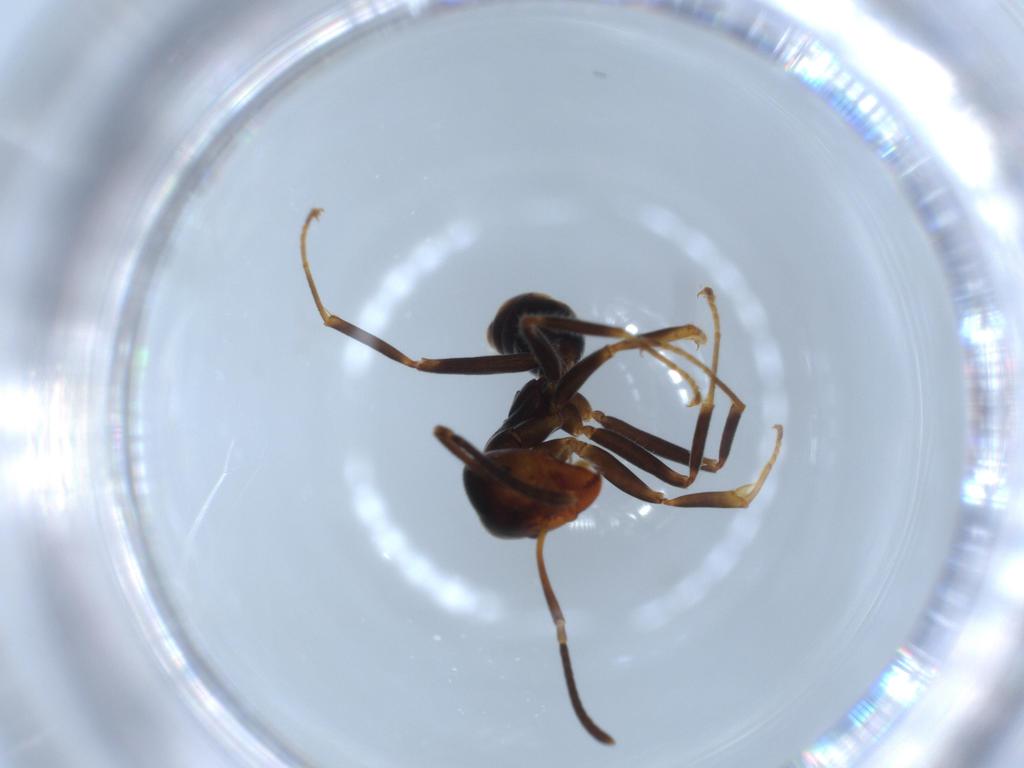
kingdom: Animalia
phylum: Arthropoda
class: Insecta
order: Hymenoptera
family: Formicidae
